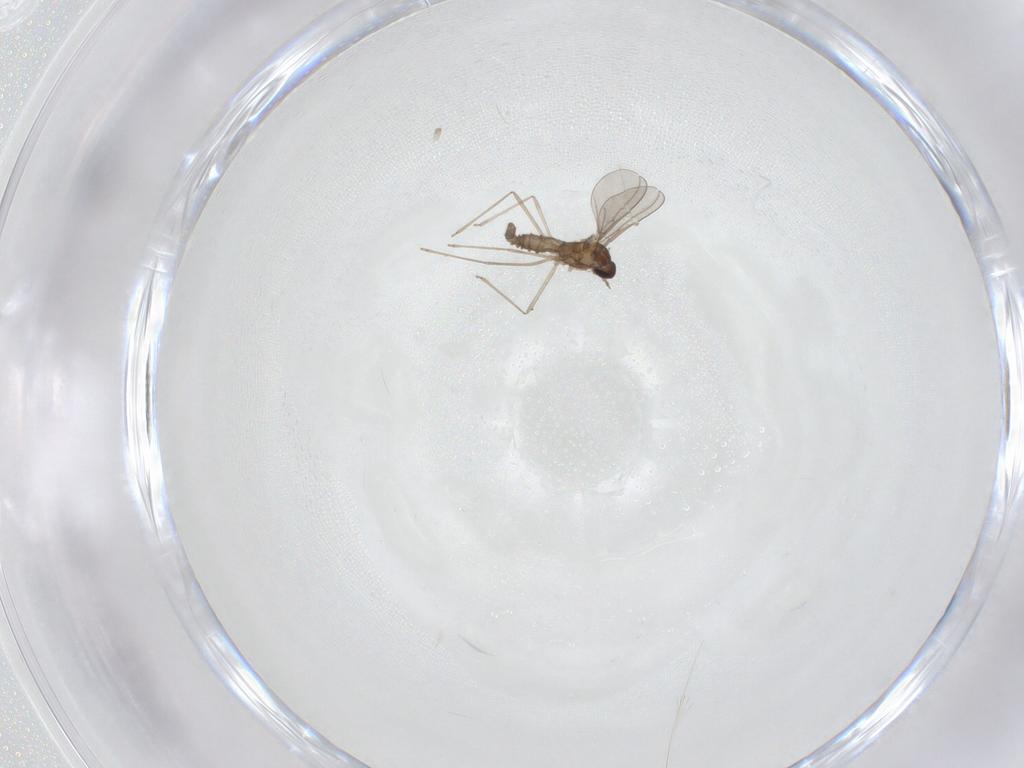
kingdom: Animalia
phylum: Arthropoda
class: Insecta
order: Diptera
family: Cecidomyiidae
